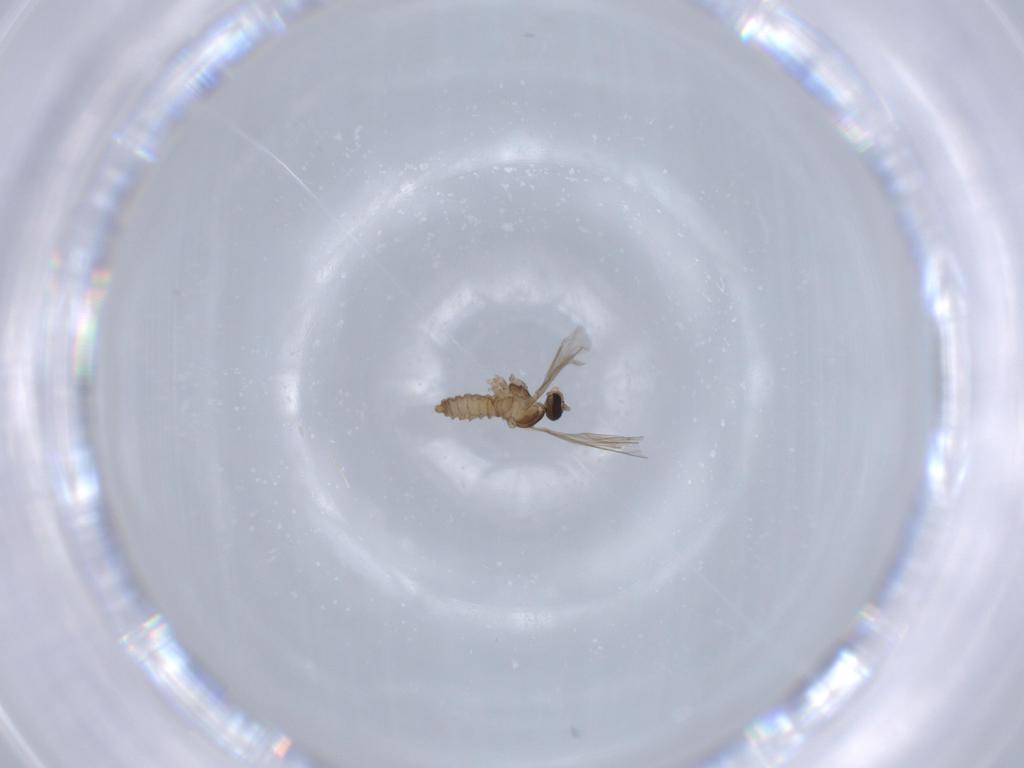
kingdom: Animalia
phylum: Arthropoda
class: Insecta
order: Diptera
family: Cecidomyiidae
